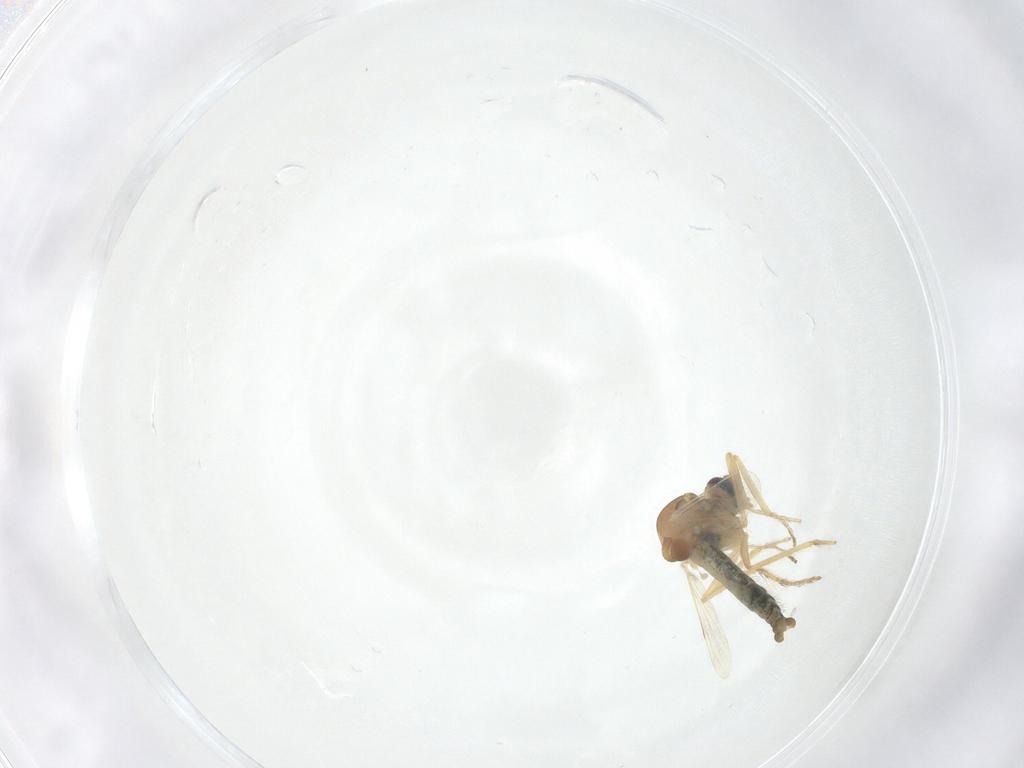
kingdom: Animalia
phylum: Arthropoda
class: Insecta
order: Diptera
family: Ceratopogonidae
